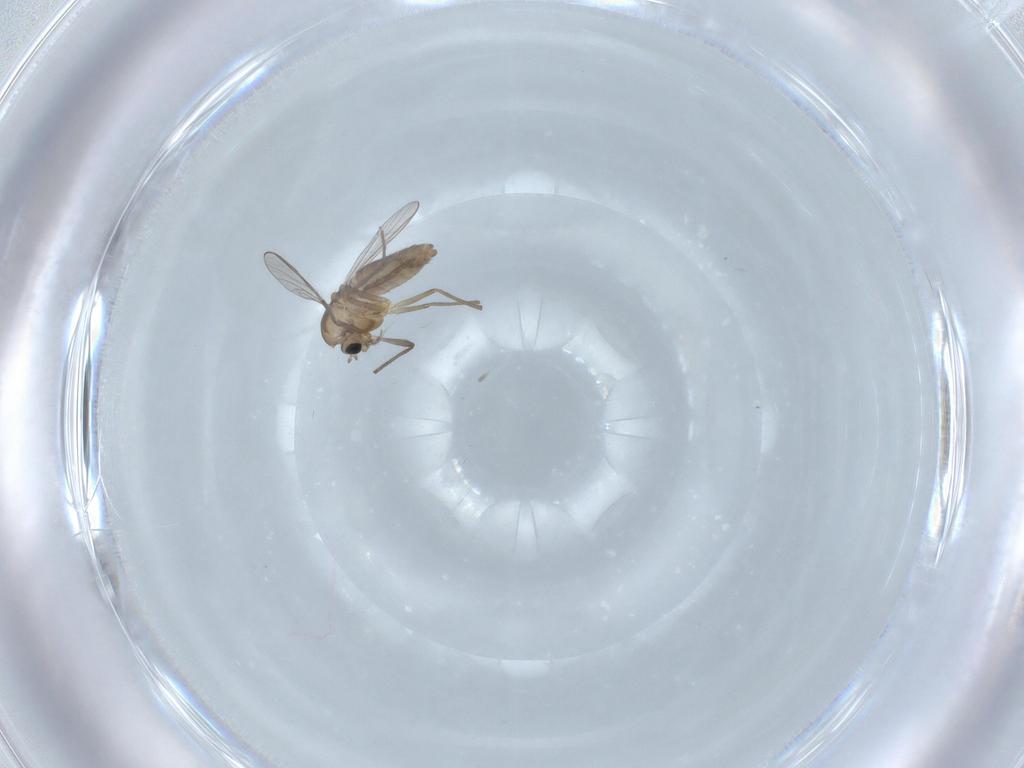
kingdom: Animalia
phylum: Arthropoda
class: Insecta
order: Diptera
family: Chironomidae
